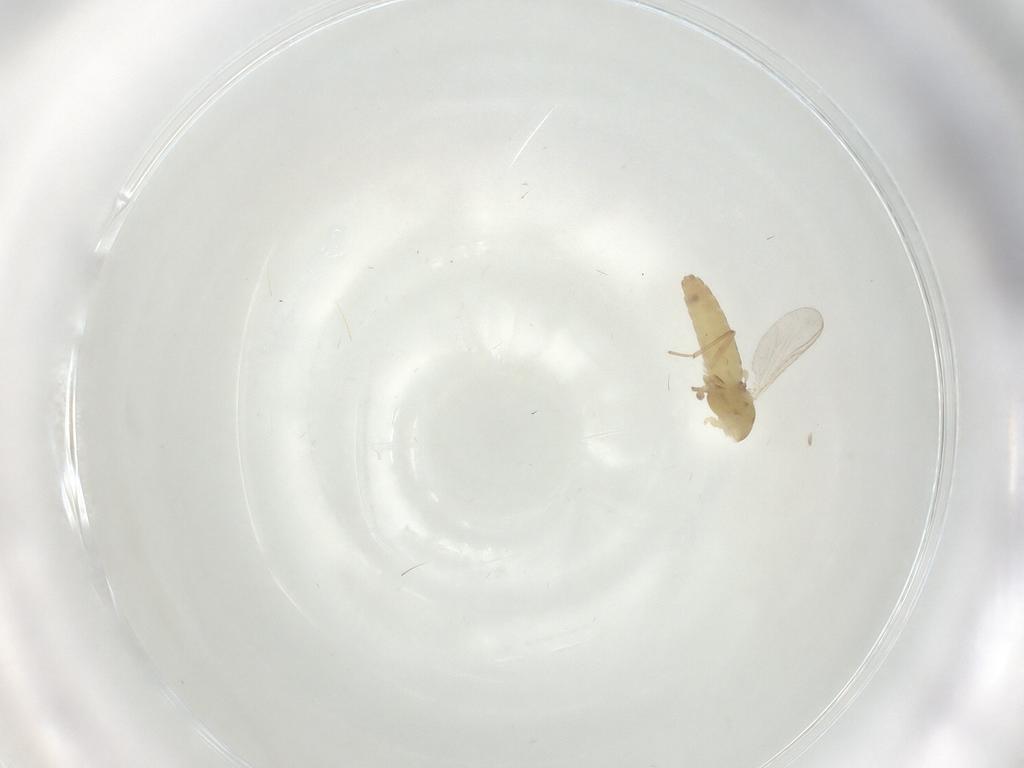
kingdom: Animalia
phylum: Arthropoda
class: Insecta
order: Diptera
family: Chironomidae
